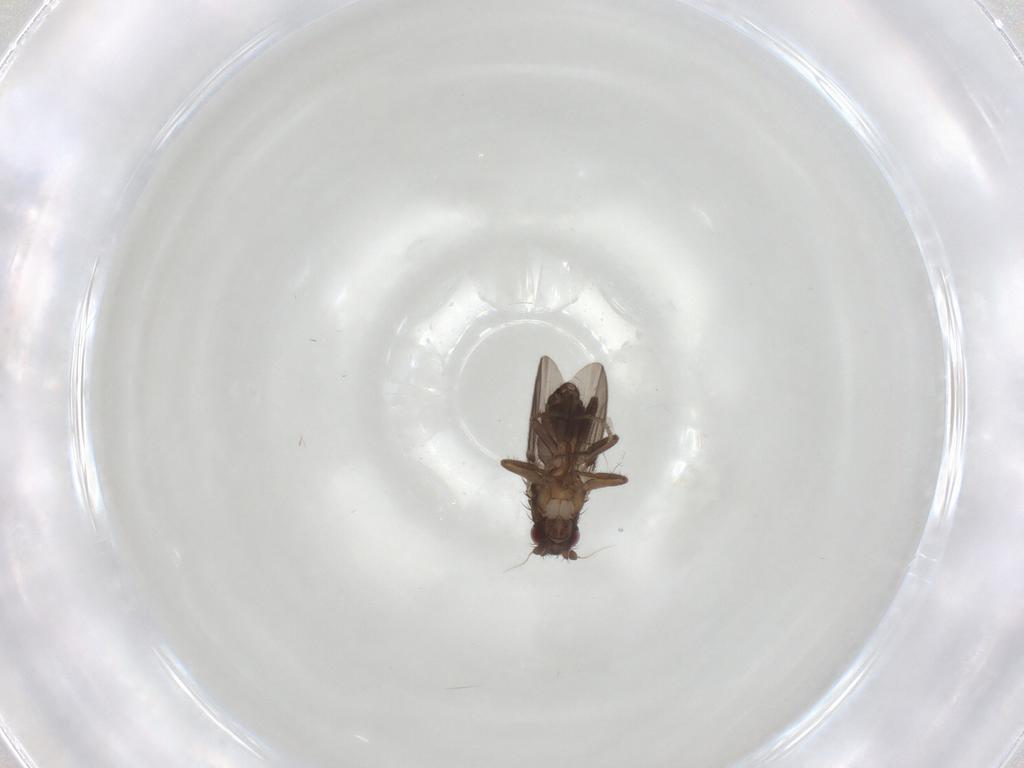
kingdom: Animalia
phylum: Arthropoda
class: Insecta
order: Diptera
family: Sphaeroceridae
